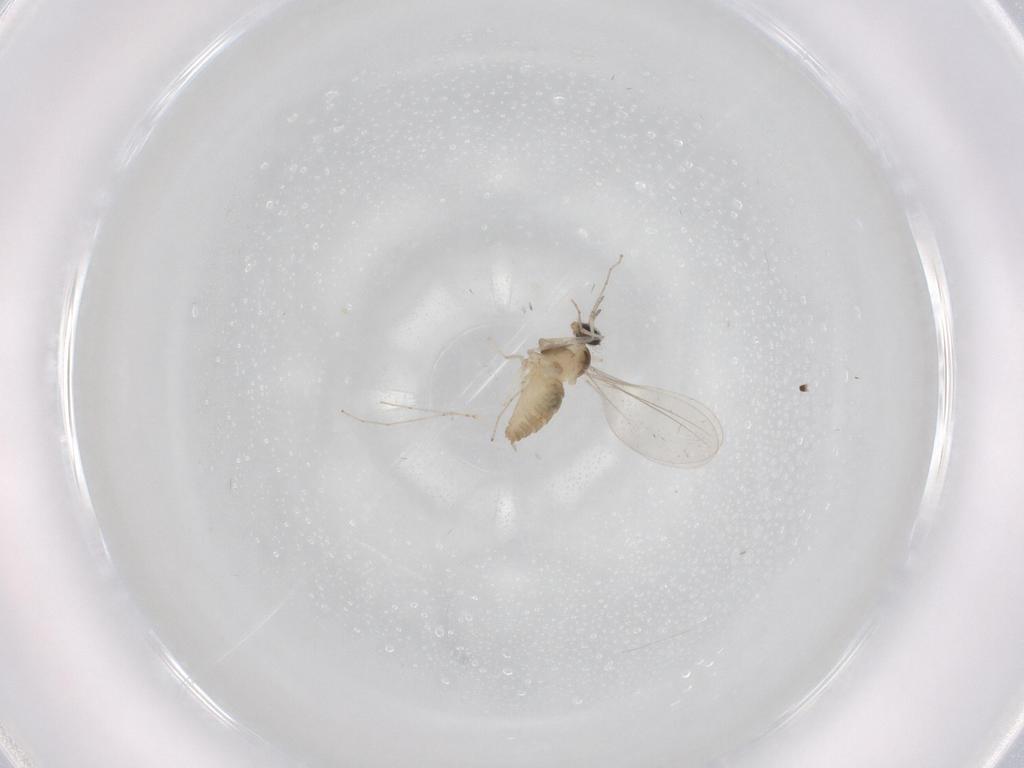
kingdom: Animalia
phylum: Arthropoda
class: Insecta
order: Diptera
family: Cecidomyiidae
